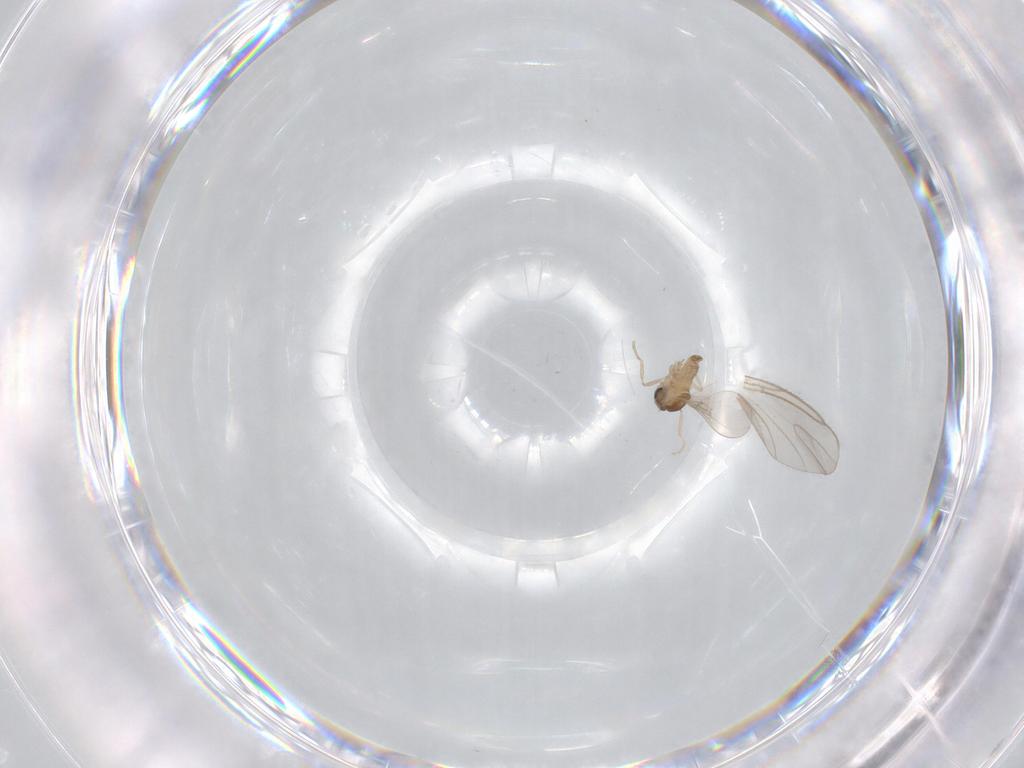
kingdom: Animalia
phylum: Arthropoda
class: Insecta
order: Diptera
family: Cecidomyiidae
